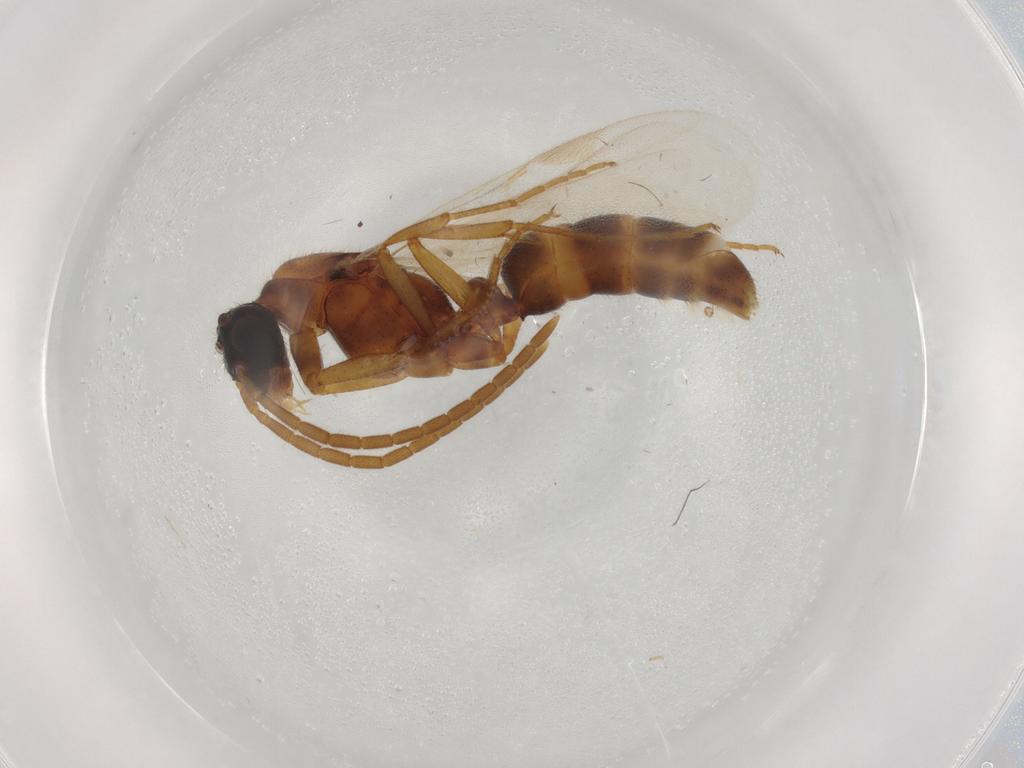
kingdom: Animalia
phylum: Arthropoda
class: Insecta
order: Hymenoptera
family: Formicidae
